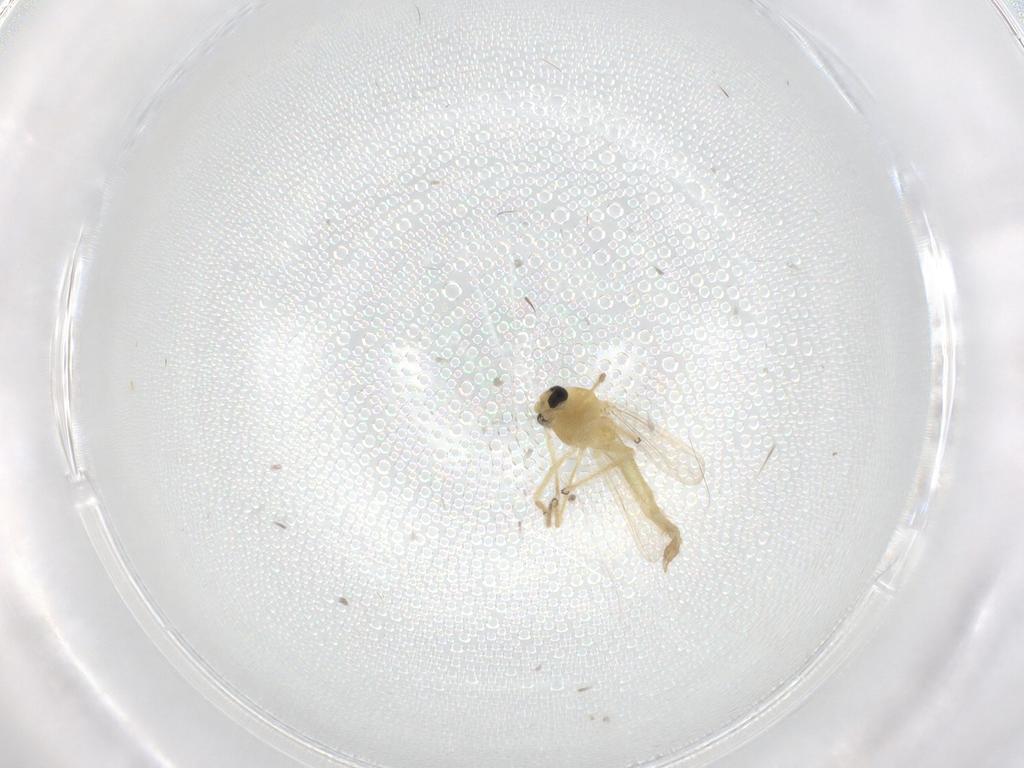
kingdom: Animalia
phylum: Arthropoda
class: Insecta
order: Diptera
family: Chironomidae
